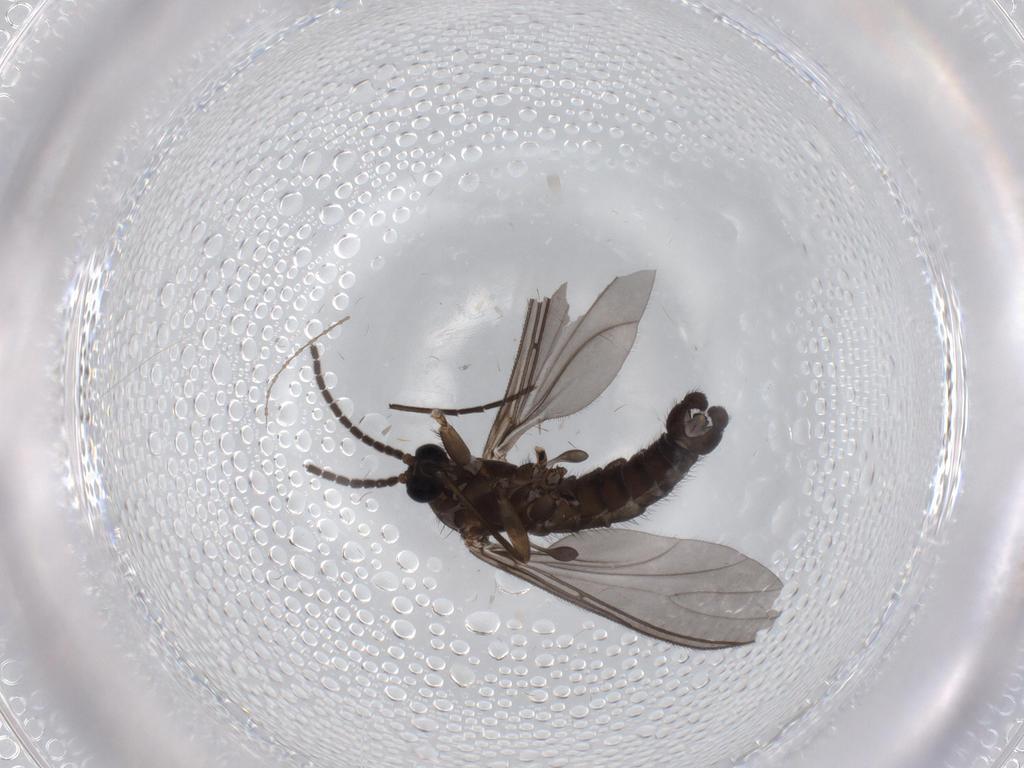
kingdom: Animalia
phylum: Arthropoda
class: Insecta
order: Diptera
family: Sciaridae
